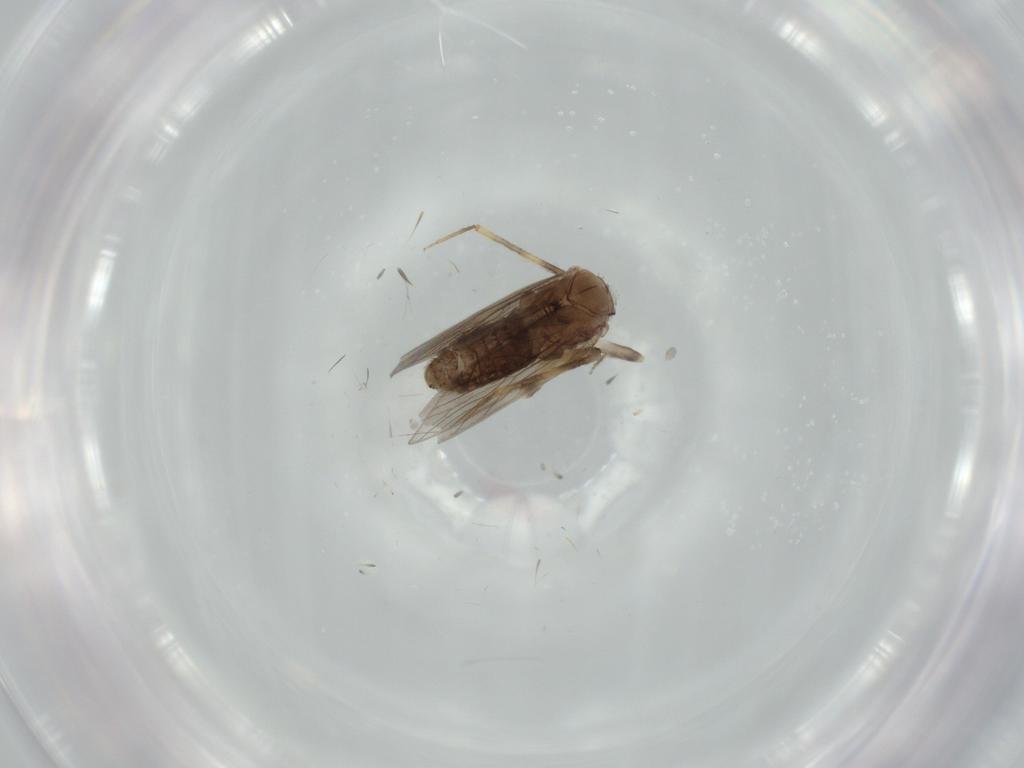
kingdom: Animalia
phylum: Arthropoda
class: Insecta
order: Psocodea
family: Lepidopsocidae
